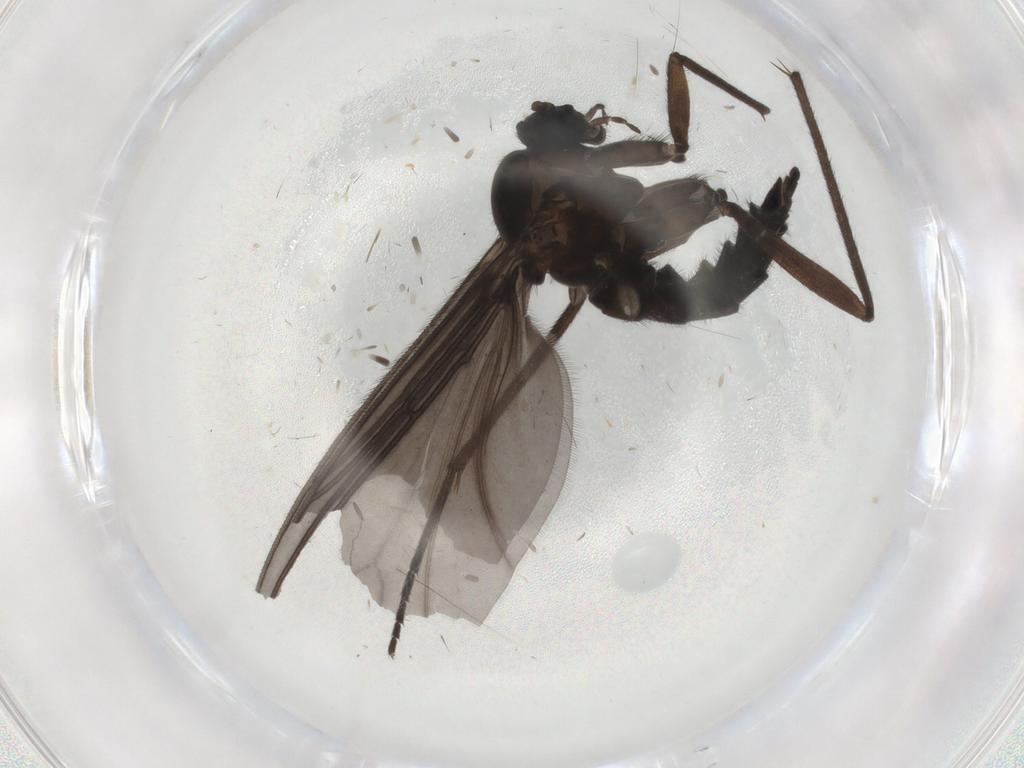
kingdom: Animalia
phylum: Arthropoda
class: Insecta
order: Diptera
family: Sciaridae
